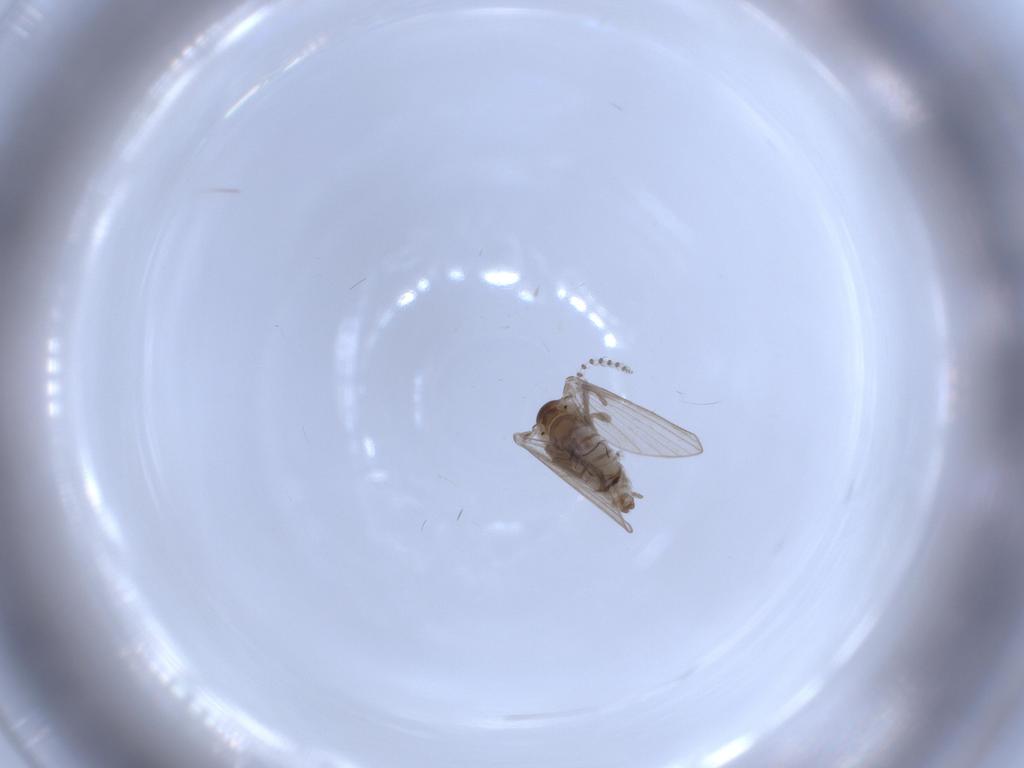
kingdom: Animalia
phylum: Arthropoda
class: Insecta
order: Diptera
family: Psychodidae
